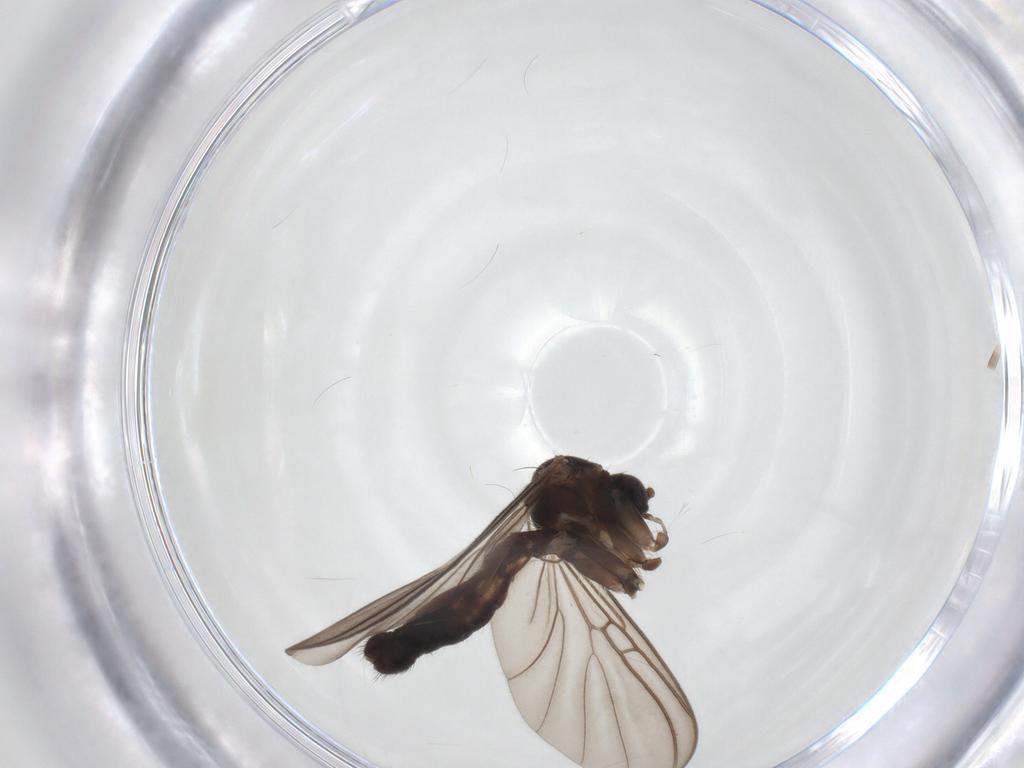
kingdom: Animalia
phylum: Arthropoda
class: Insecta
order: Diptera
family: Mycetophilidae
